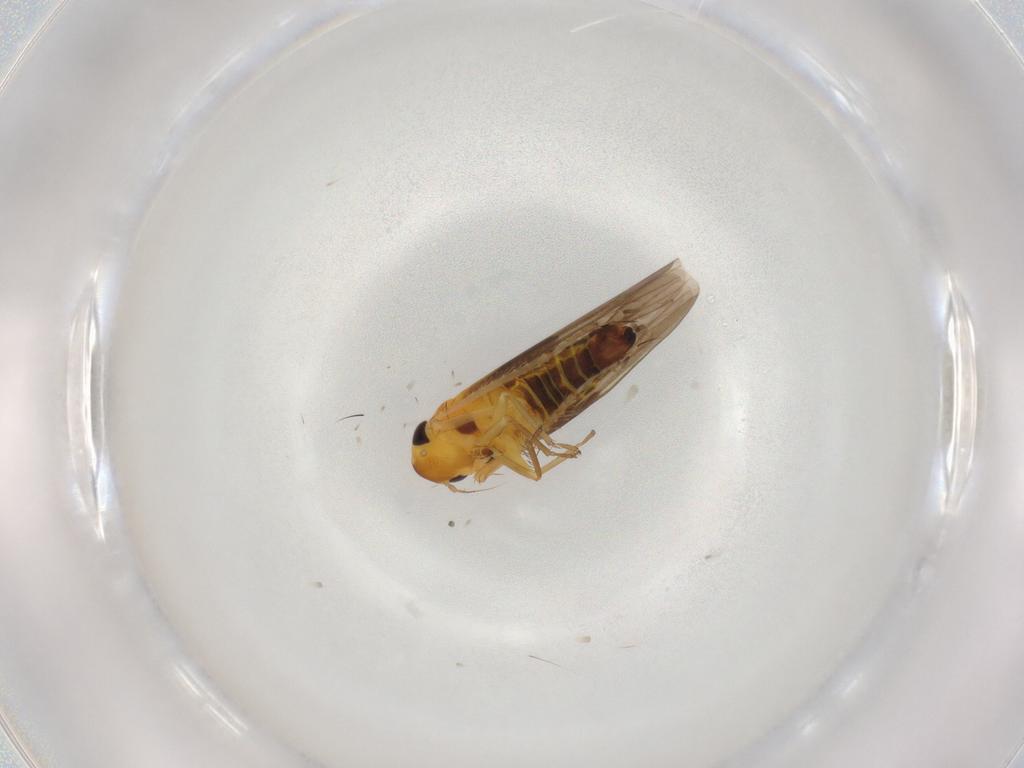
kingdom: Animalia
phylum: Arthropoda
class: Insecta
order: Hemiptera
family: Cicadellidae
